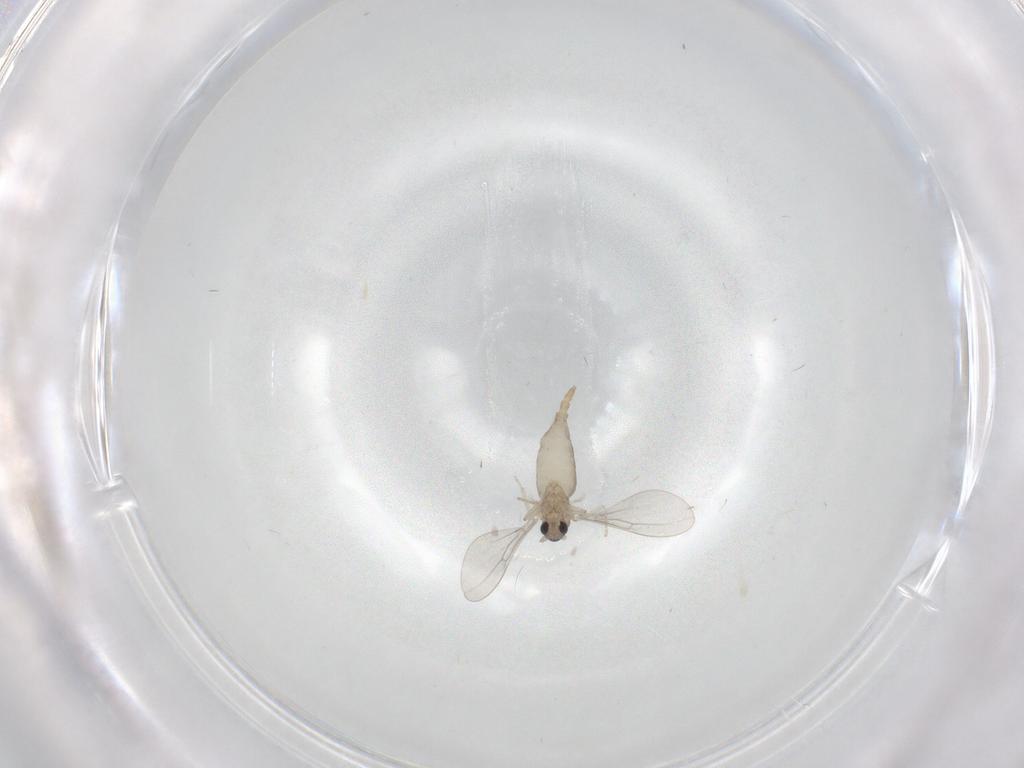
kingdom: Animalia
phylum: Arthropoda
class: Insecta
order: Diptera
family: Cecidomyiidae
